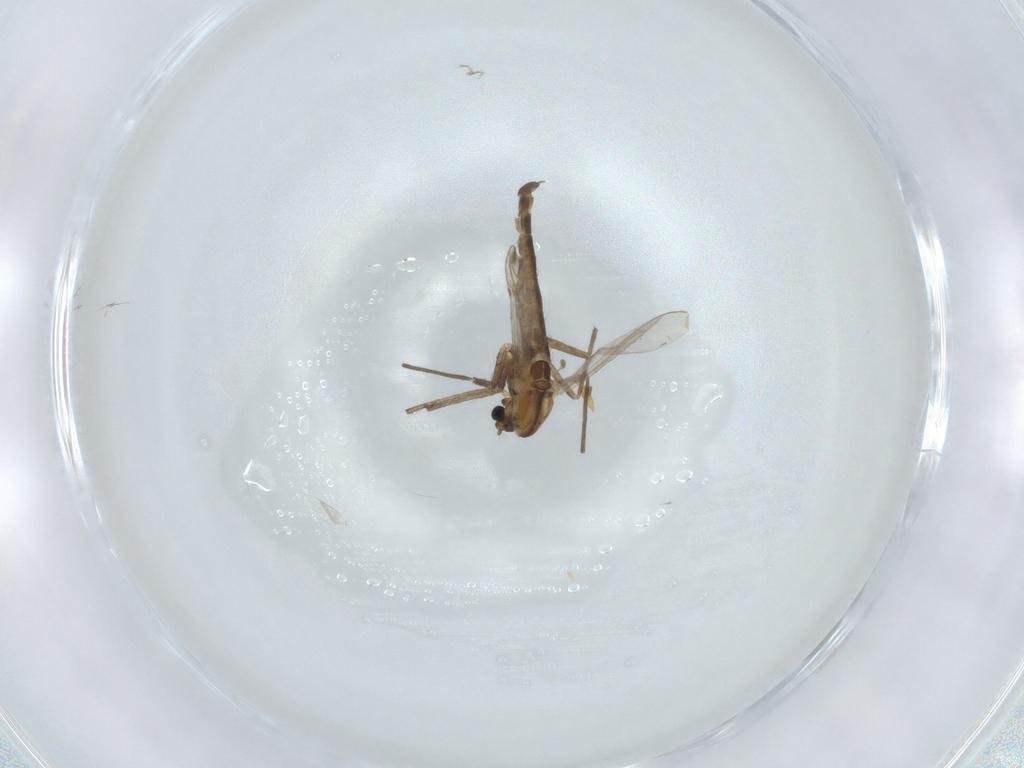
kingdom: Animalia
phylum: Arthropoda
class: Insecta
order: Diptera
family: Chironomidae
